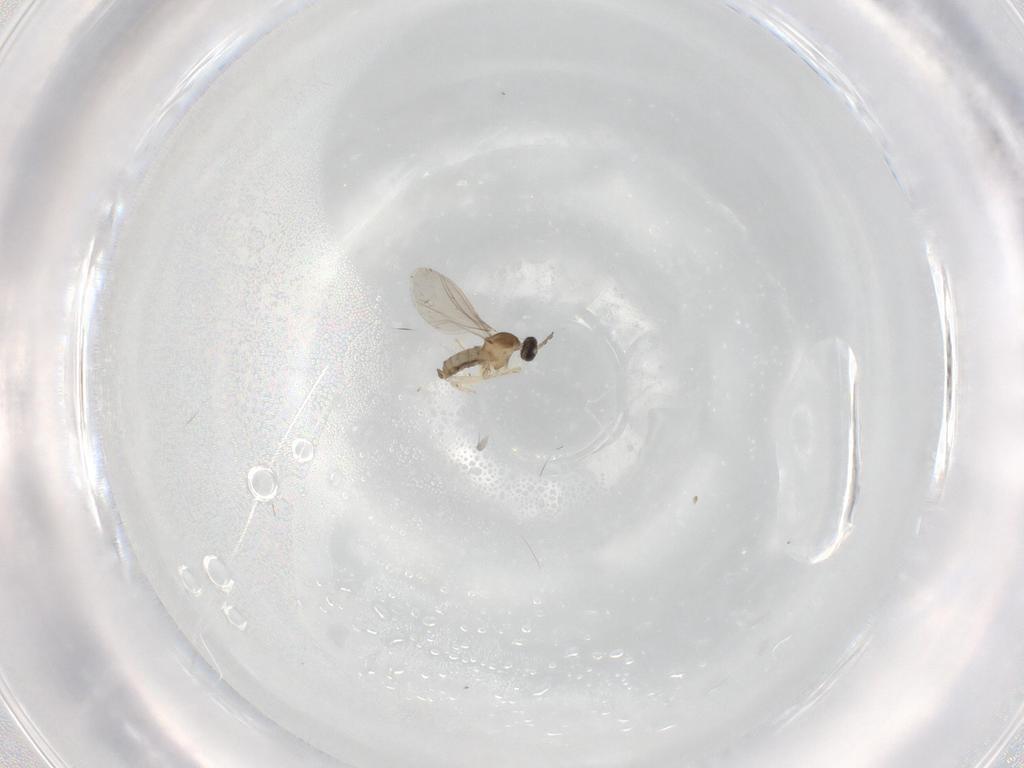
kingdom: Animalia
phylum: Arthropoda
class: Insecta
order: Diptera
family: Cecidomyiidae
